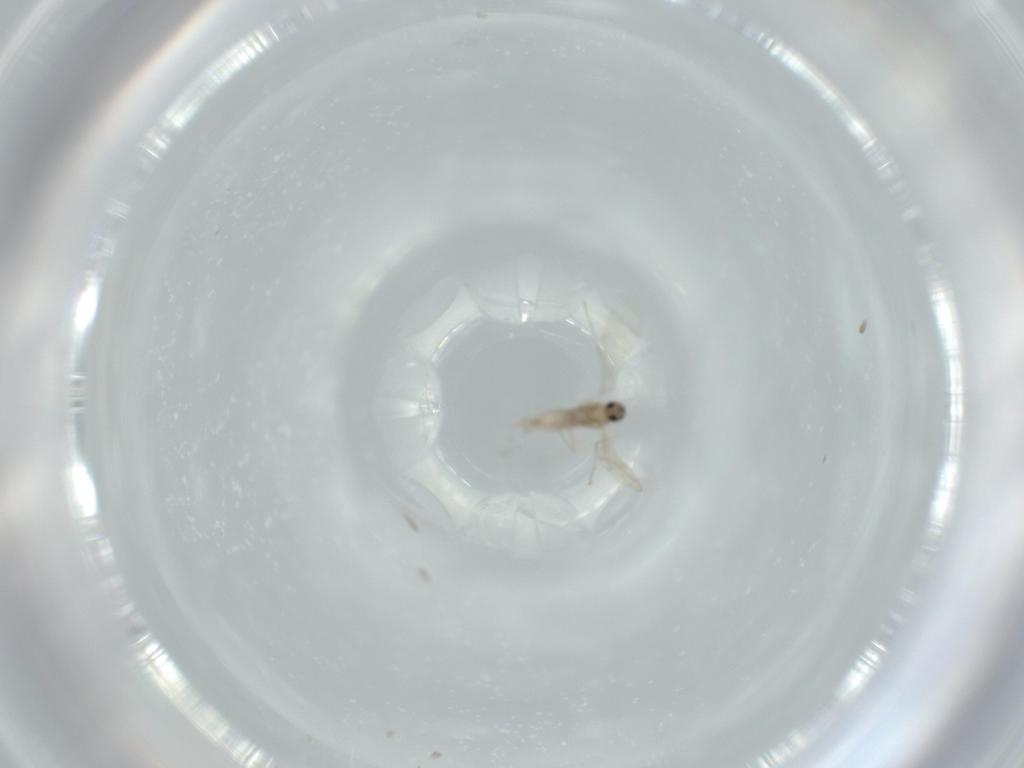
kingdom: Animalia
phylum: Arthropoda
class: Insecta
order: Diptera
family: Cecidomyiidae
